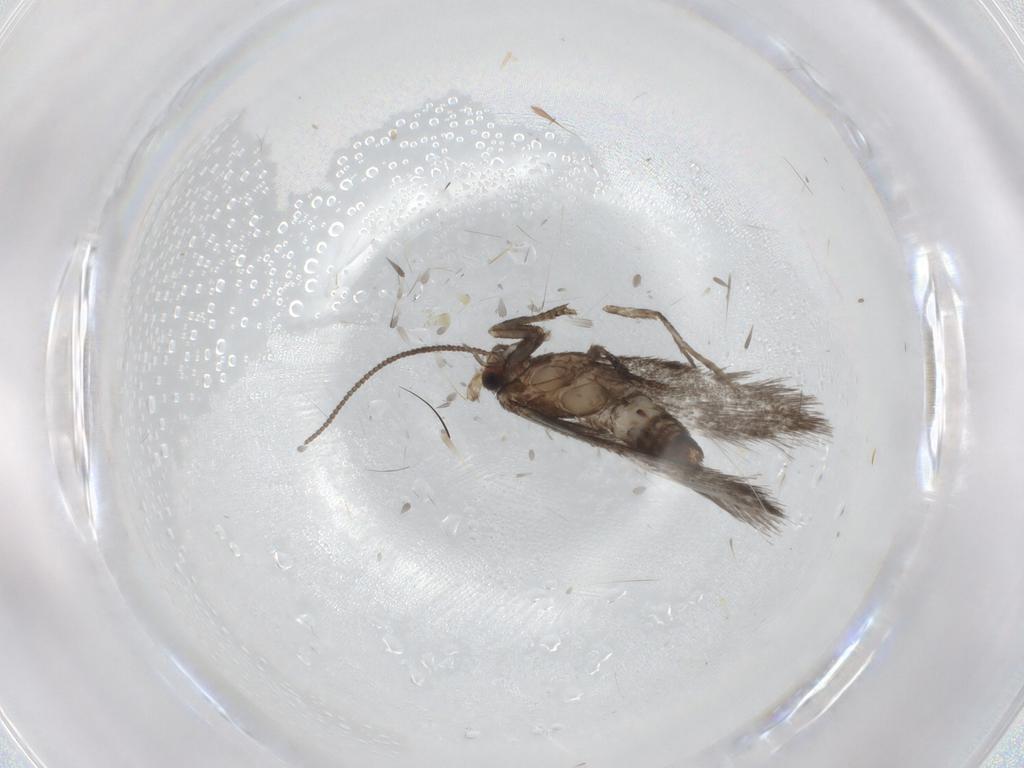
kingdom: Animalia
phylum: Arthropoda
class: Insecta
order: Lepidoptera
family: Nepticulidae
